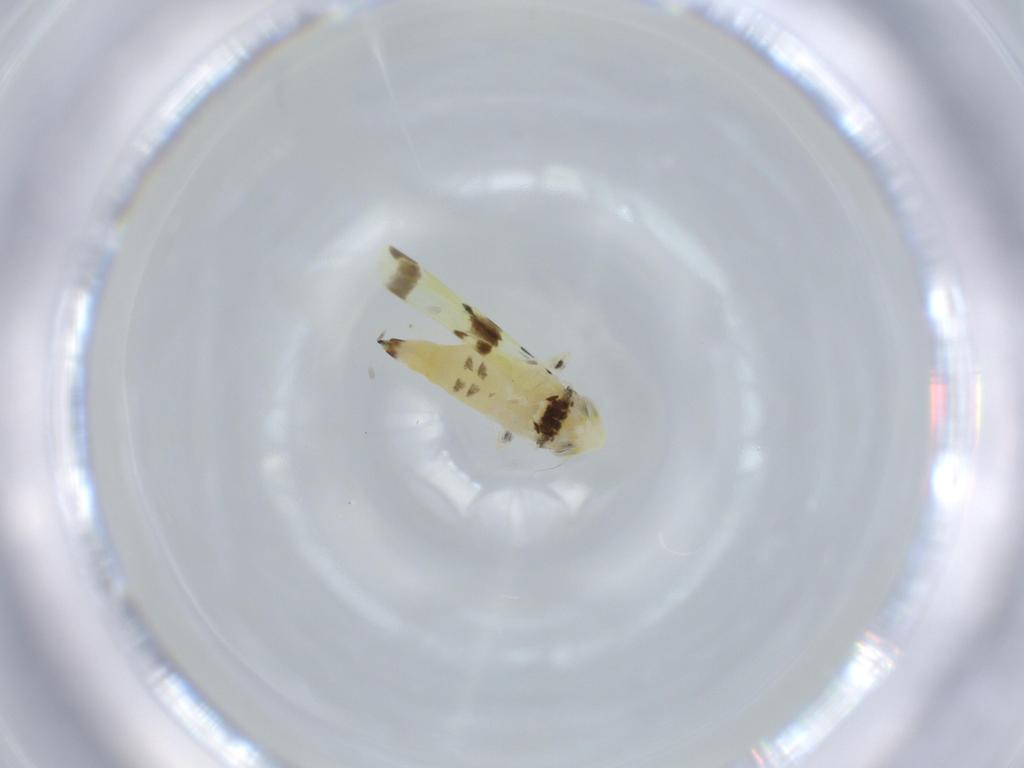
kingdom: Animalia
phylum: Arthropoda
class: Insecta
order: Hemiptera
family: Cicadellidae
